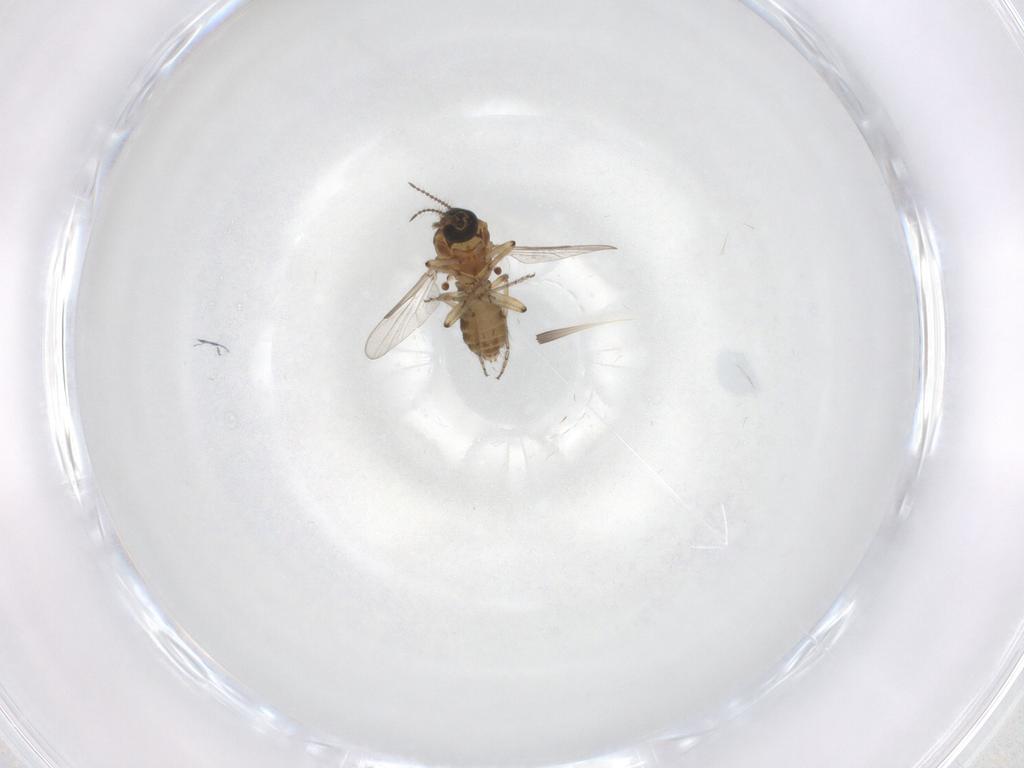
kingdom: Animalia
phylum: Arthropoda
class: Insecta
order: Diptera
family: Ceratopogonidae
